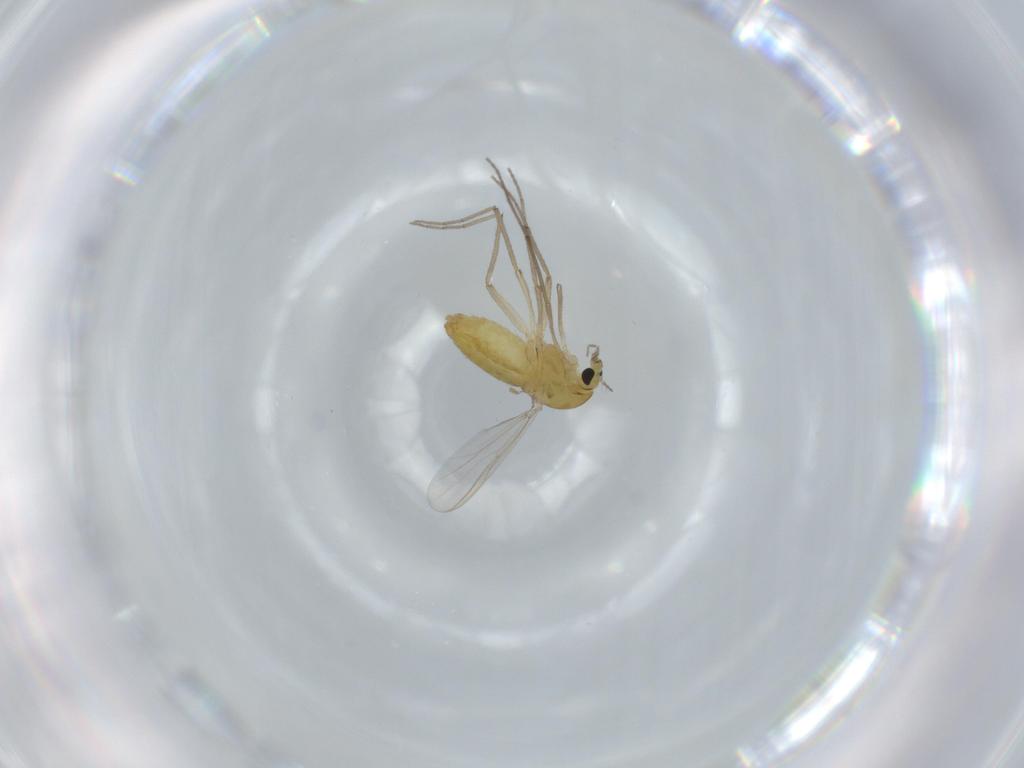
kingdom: Animalia
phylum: Arthropoda
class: Insecta
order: Diptera
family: Chironomidae
